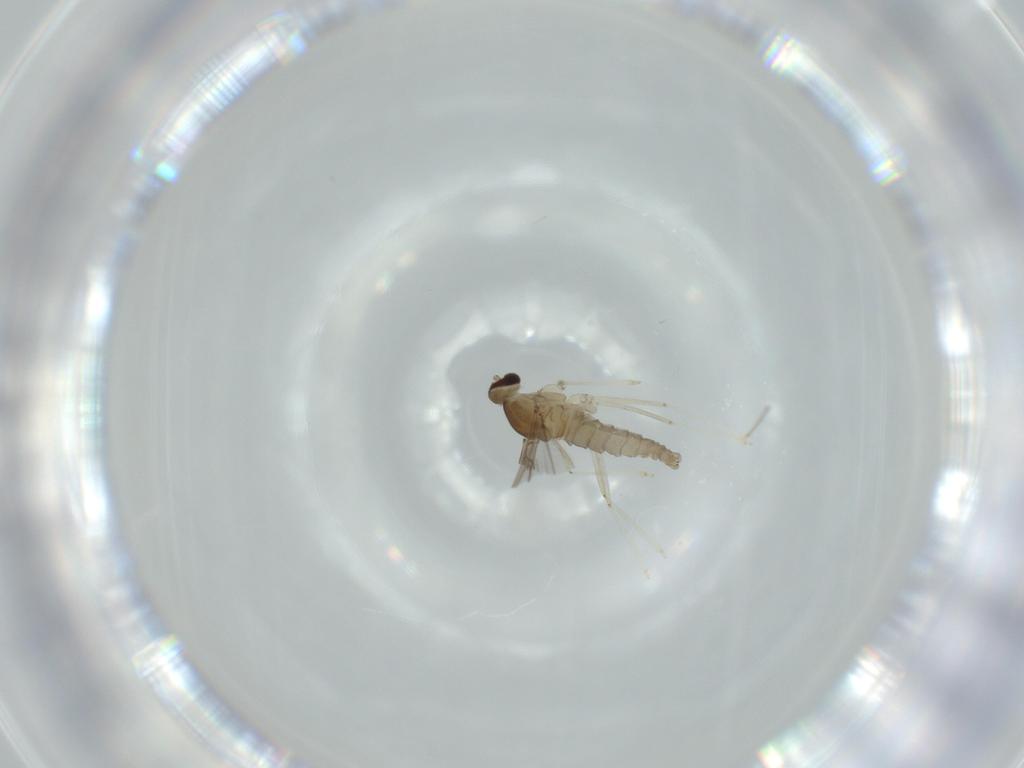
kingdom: Animalia
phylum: Arthropoda
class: Insecta
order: Diptera
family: Cecidomyiidae
